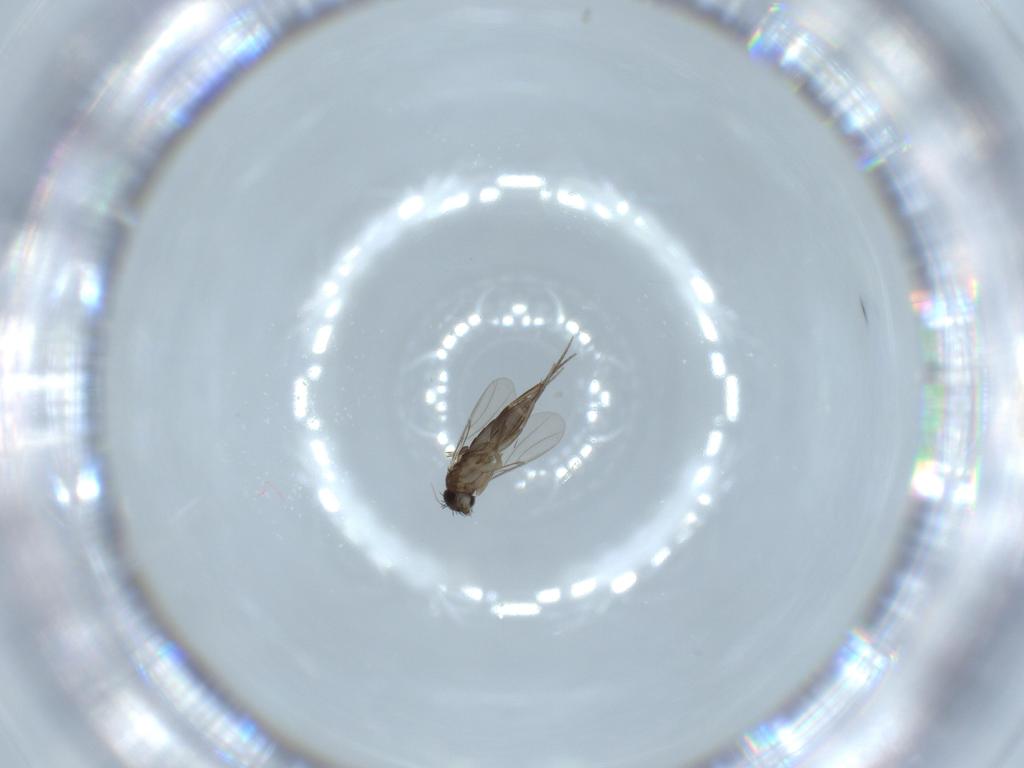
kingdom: Animalia
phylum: Arthropoda
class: Insecta
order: Diptera
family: Phoridae
